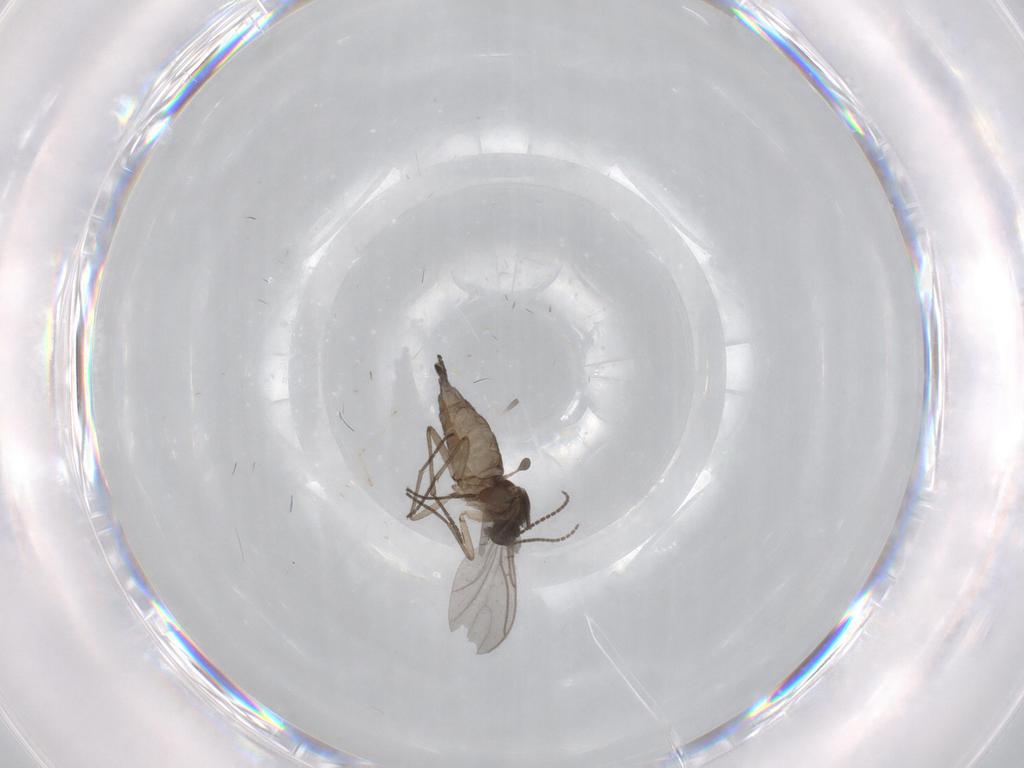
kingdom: Animalia
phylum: Arthropoda
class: Insecta
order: Diptera
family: Sciaridae
